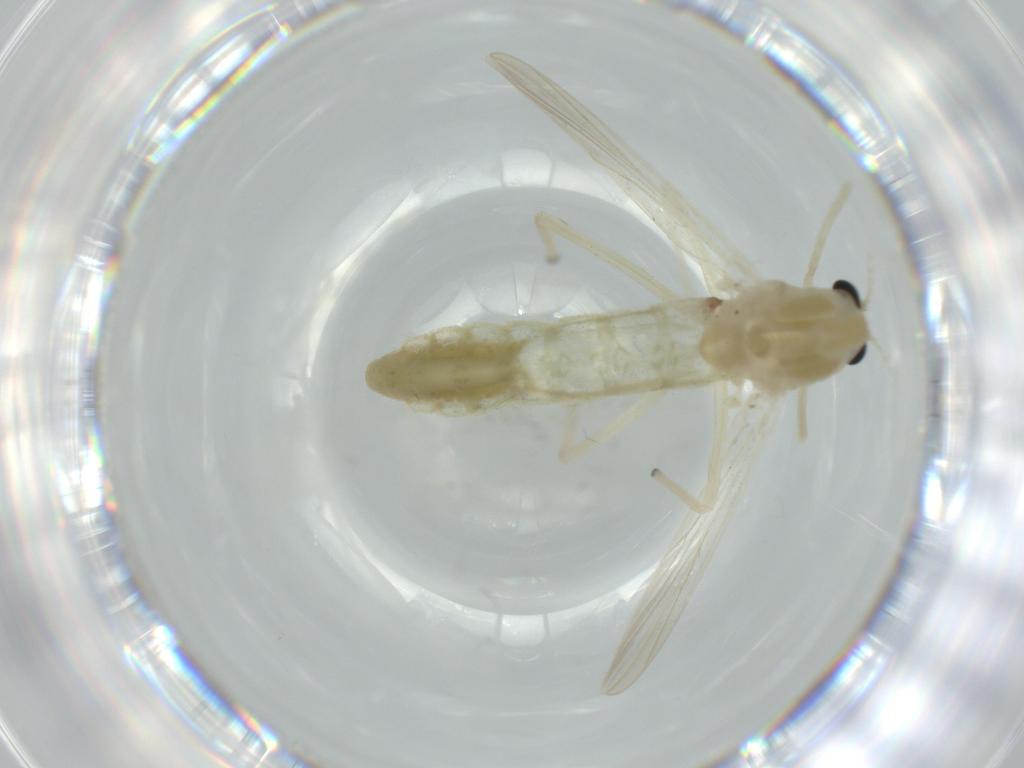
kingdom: Animalia
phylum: Arthropoda
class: Insecta
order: Diptera
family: Chironomidae
